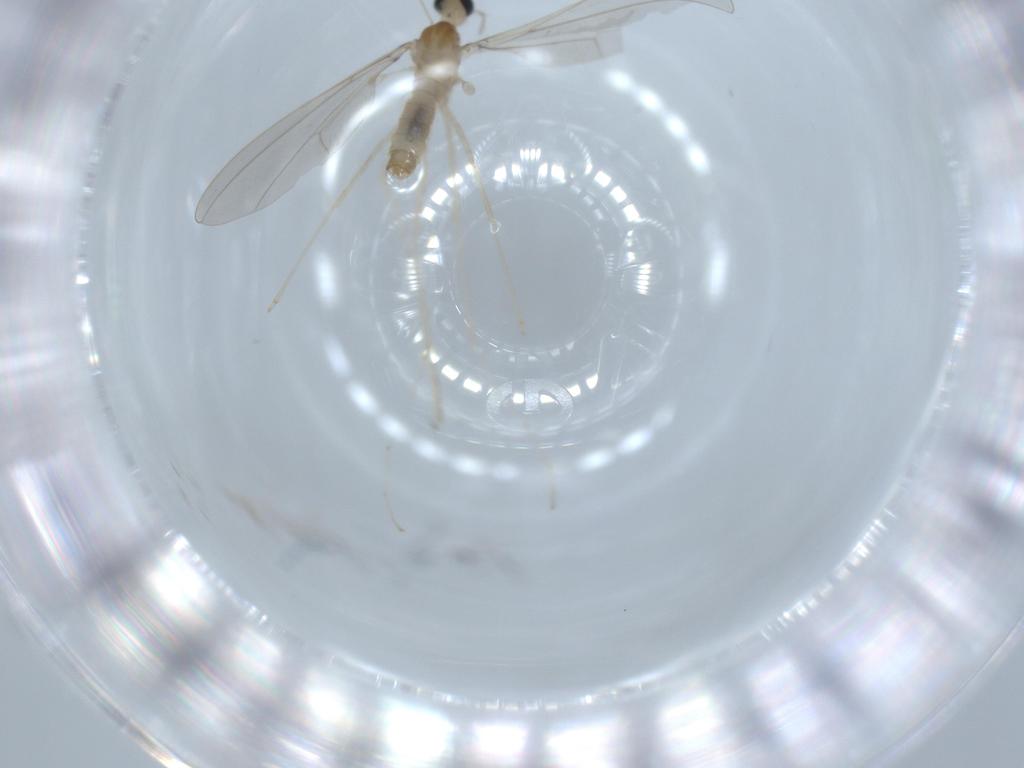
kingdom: Animalia
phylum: Arthropoda
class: Insecta
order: Diptera
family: Cecidomyiidae
